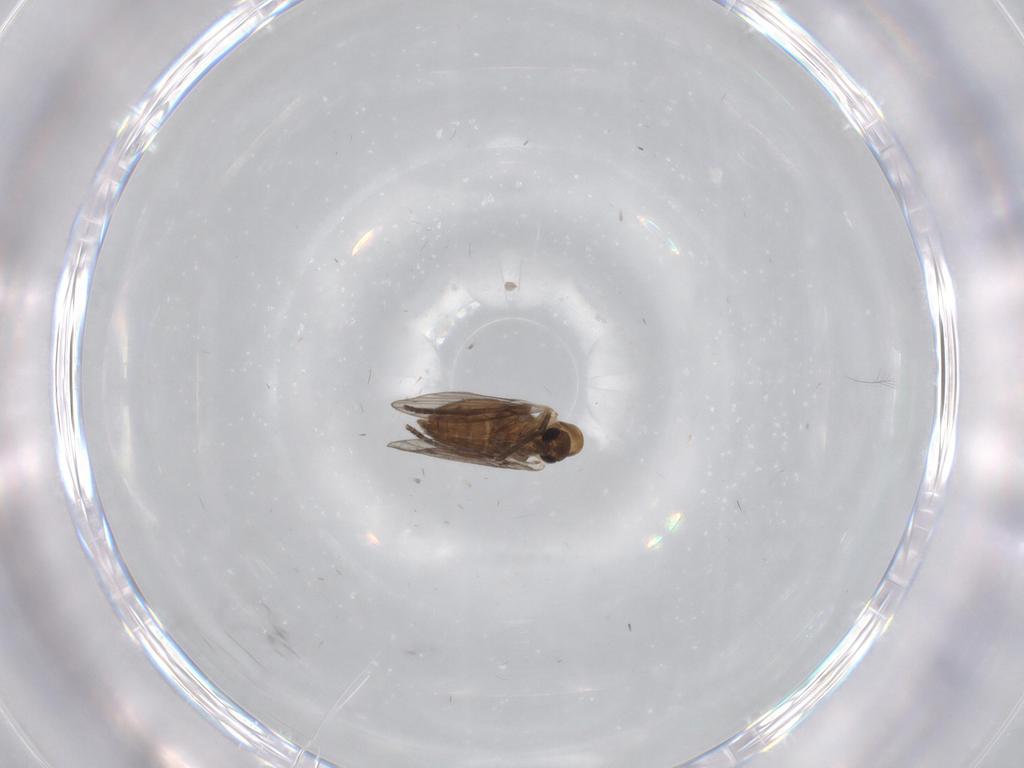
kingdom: Animalia
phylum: Arthropoda
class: Insecta
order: Diptera
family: Psychodidae
